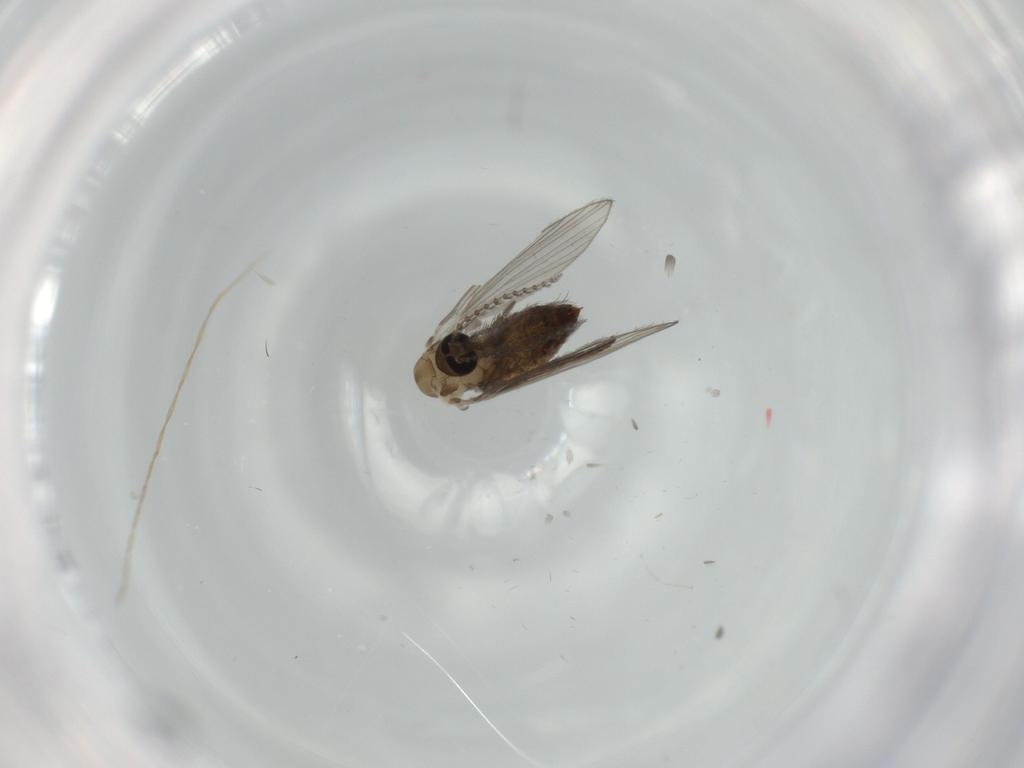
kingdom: Animalia
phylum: Arthropoda
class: Insecta
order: Diptera
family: Psychodidae
